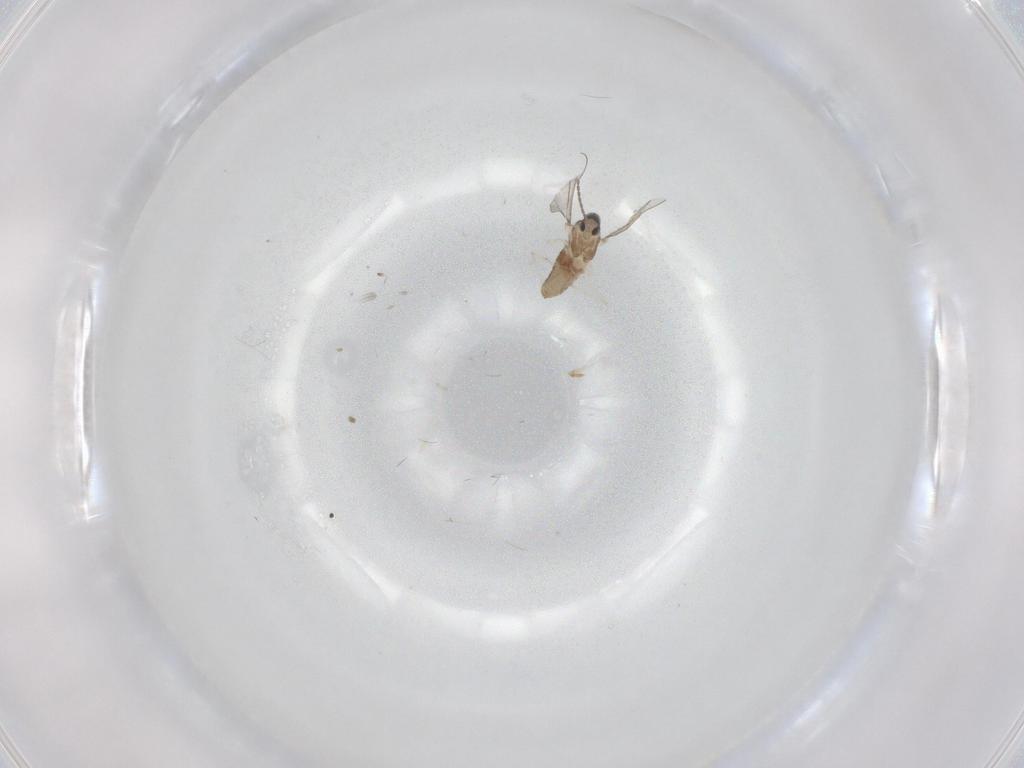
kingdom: Animalia
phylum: Arthropoda
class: Insecta
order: Diptera
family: Cecidomyiidae
